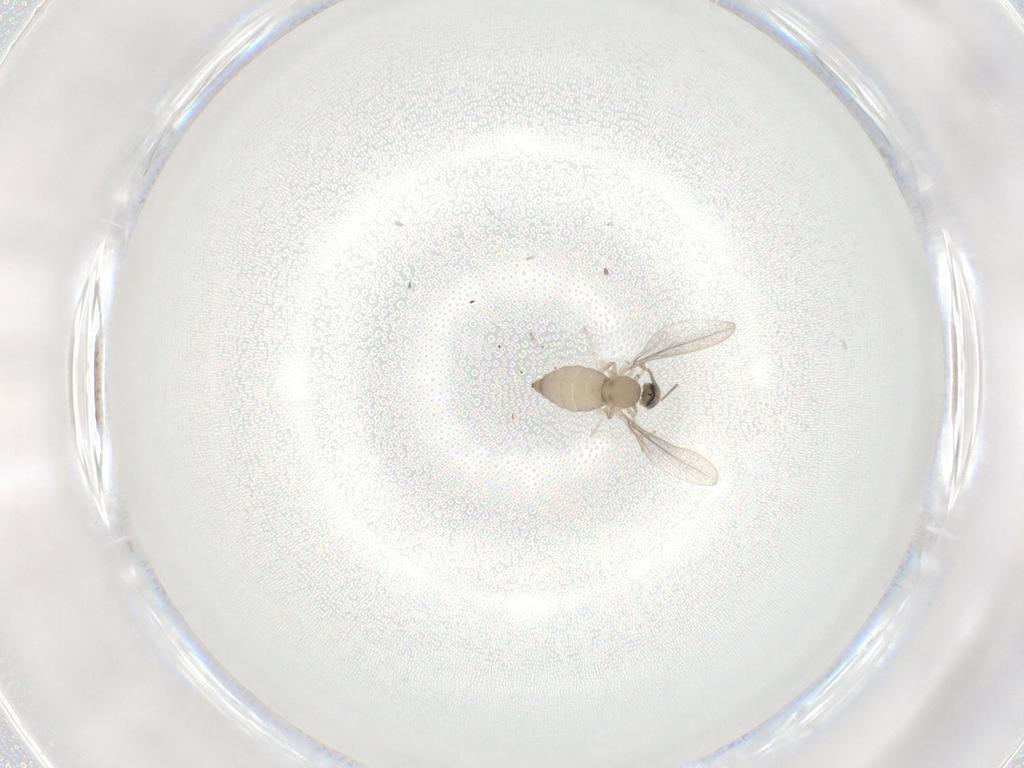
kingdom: Animalia
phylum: Arthropoda
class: Insecta
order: Diptera
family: Cecidomyiidae
